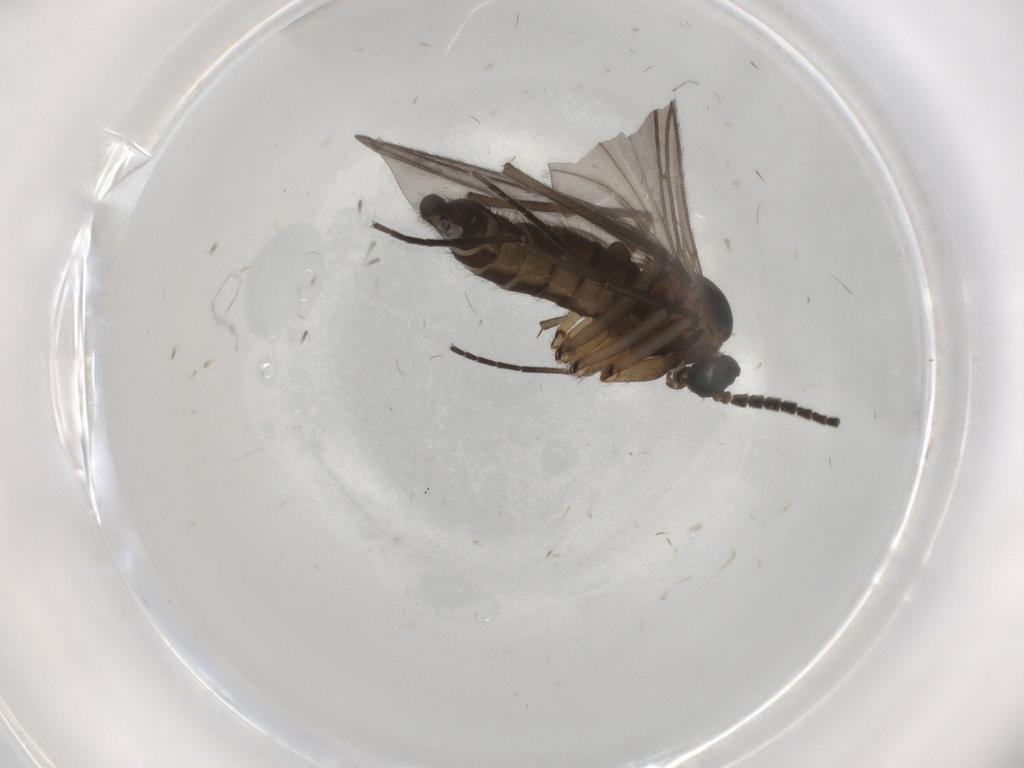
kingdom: Animalia
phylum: Arthropoda
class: Insecta
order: Diptera
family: Sciaridae
